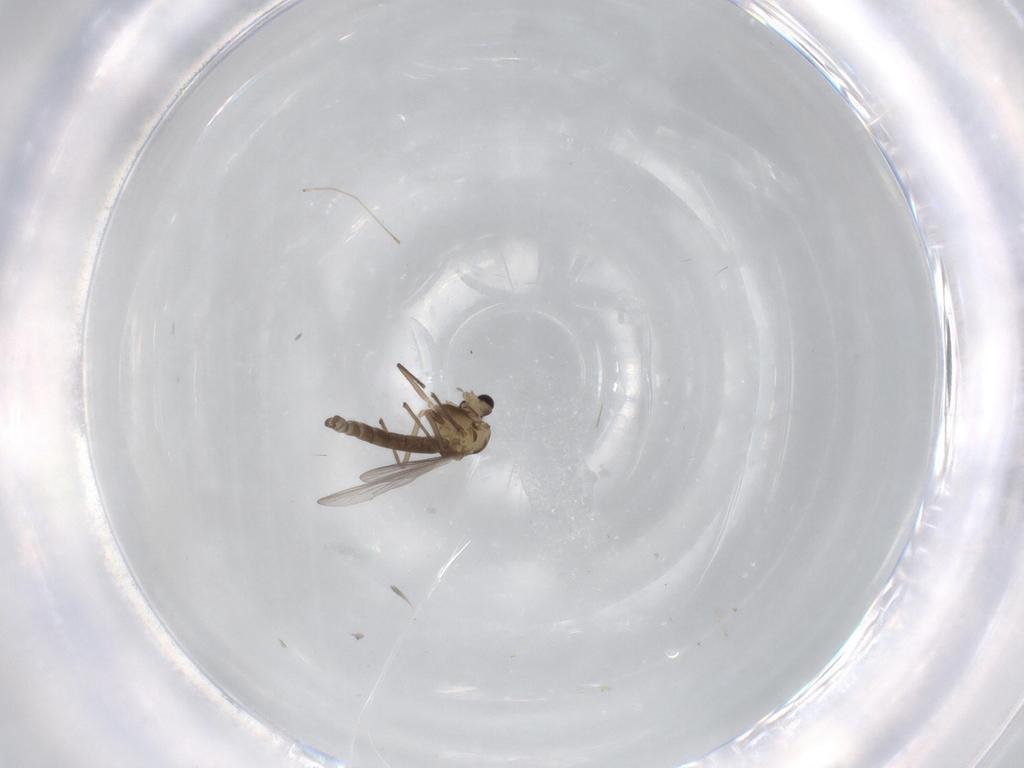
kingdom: Animalia
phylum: Arthropoda
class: Insecta
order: Diptera
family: Chironomidae
